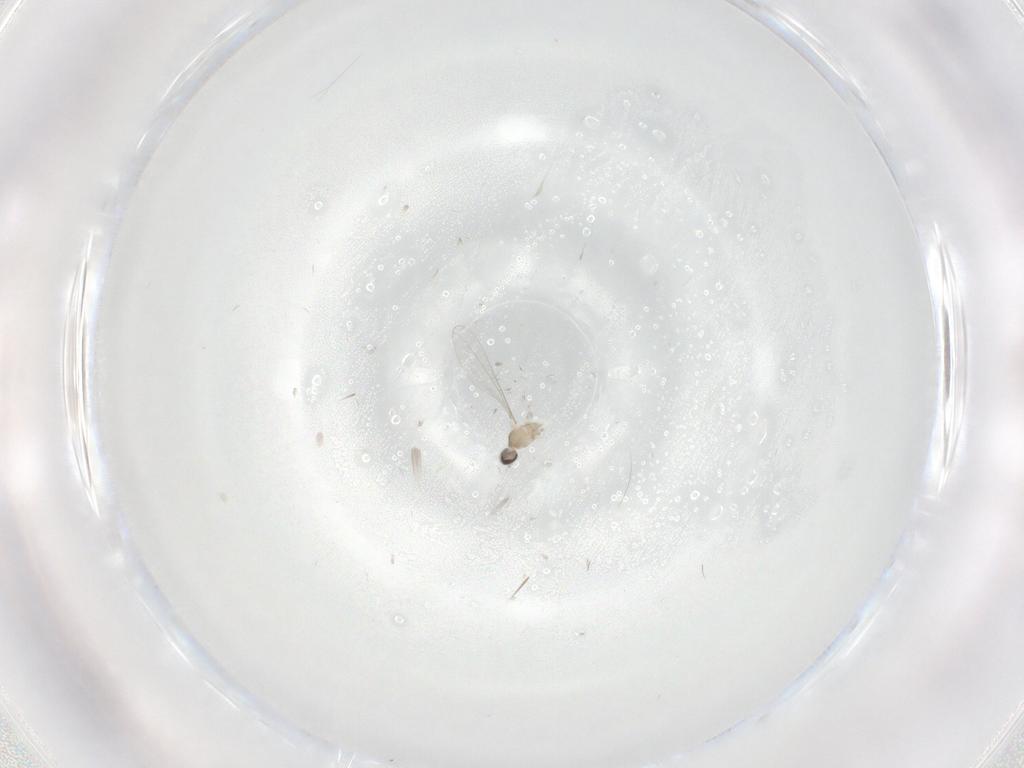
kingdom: Animalia
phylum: Arthropoda
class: Insecta
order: Diptera
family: Cecidomyiidae
